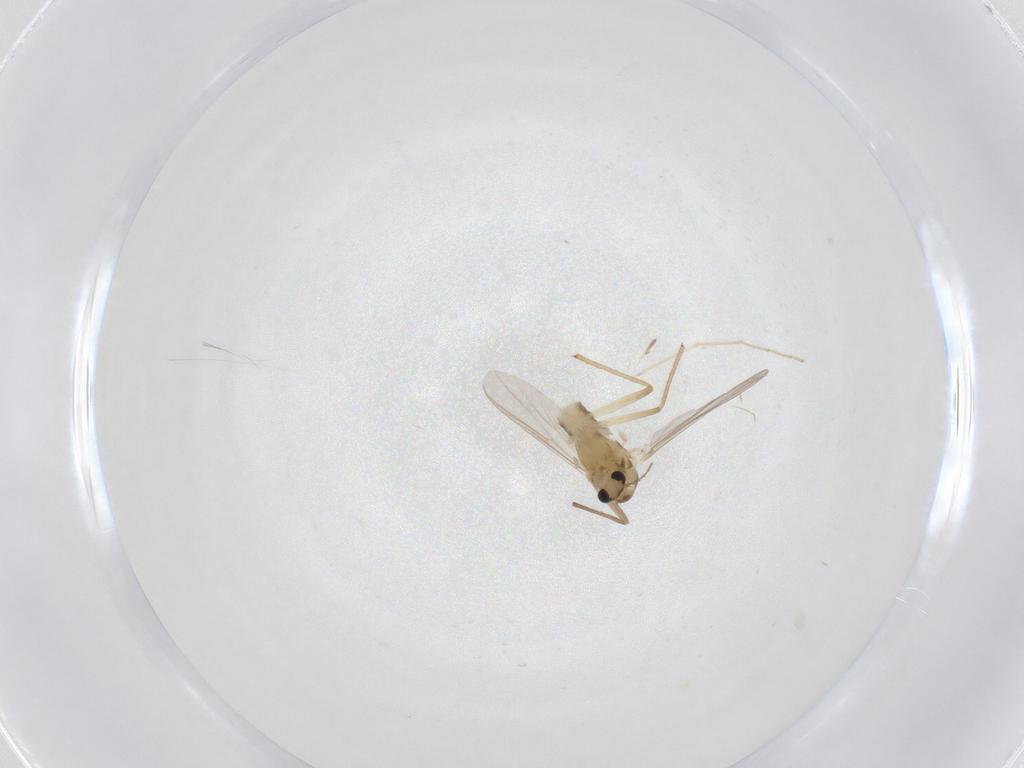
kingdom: Animalia
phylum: Arthropoda
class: Insecta
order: Diptera
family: Chironomidae
